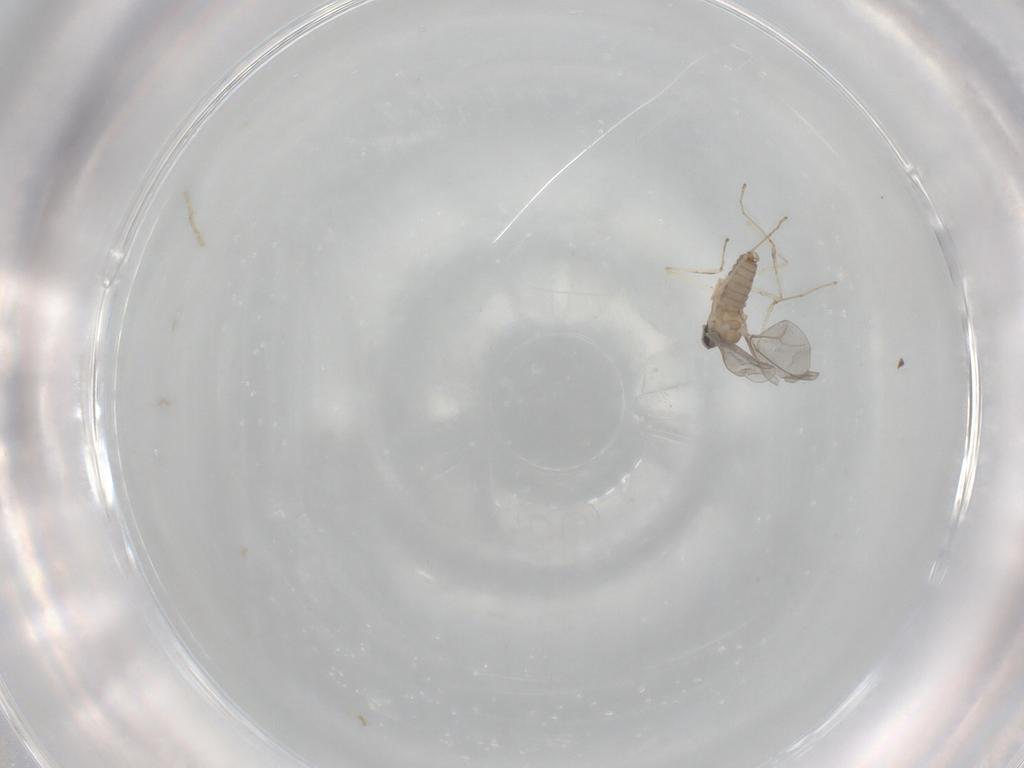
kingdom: Animalia
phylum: Arthropoda
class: Insecta
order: Diptera
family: Cecidomyiidae
